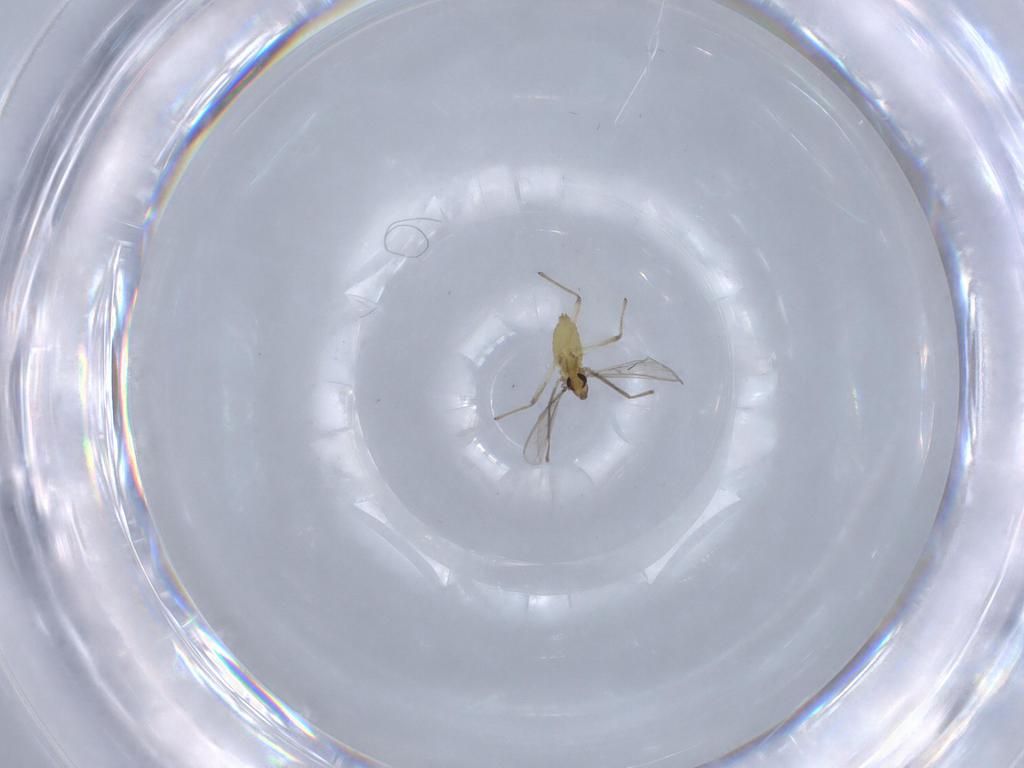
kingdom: Animalia
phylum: Arthropoda
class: Insecta
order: Diptera
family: Chironomidae
